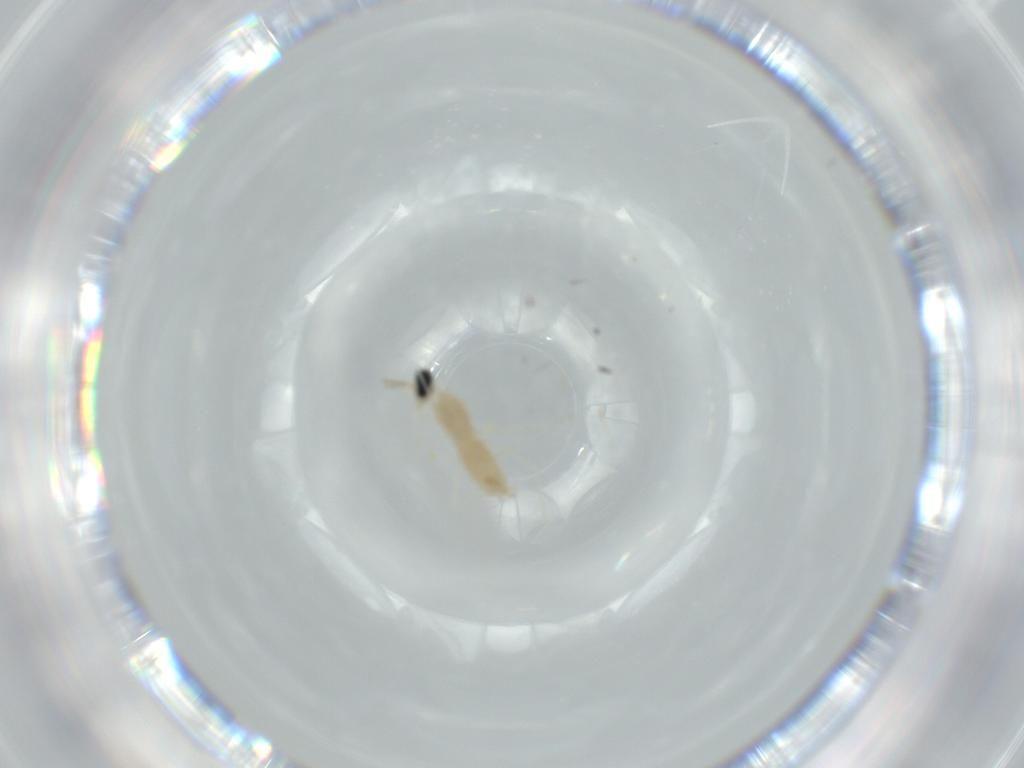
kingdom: Animalia
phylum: Arthropoda
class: Insecta
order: Diptera
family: Cecidomyiidae
